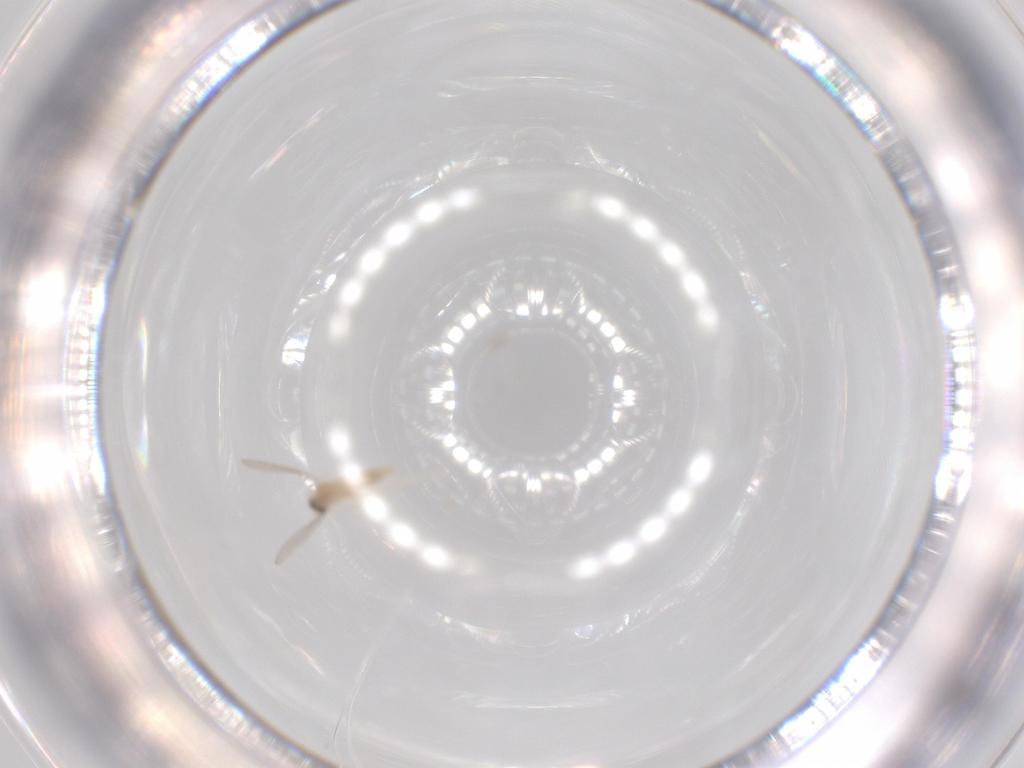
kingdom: Animalia
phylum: Arthropoda
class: Insecta
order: Diptera
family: Cecidomyiidae
